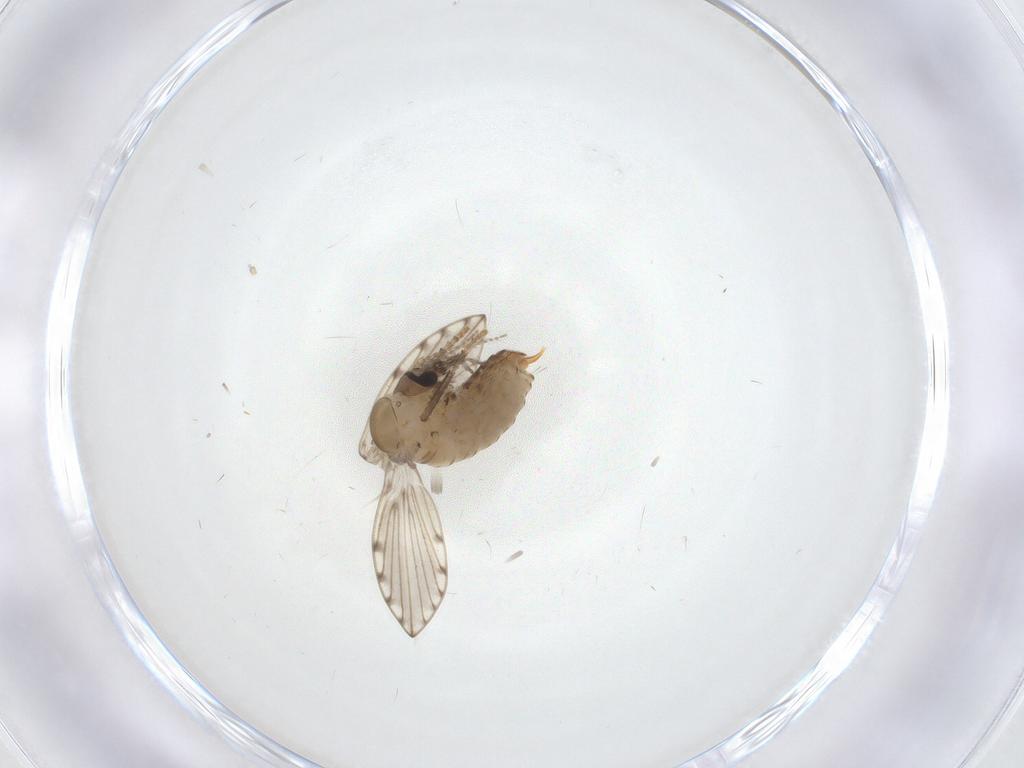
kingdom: Animalia
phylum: Arthropoda
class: Insecta
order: Diptera
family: Psychodidae
